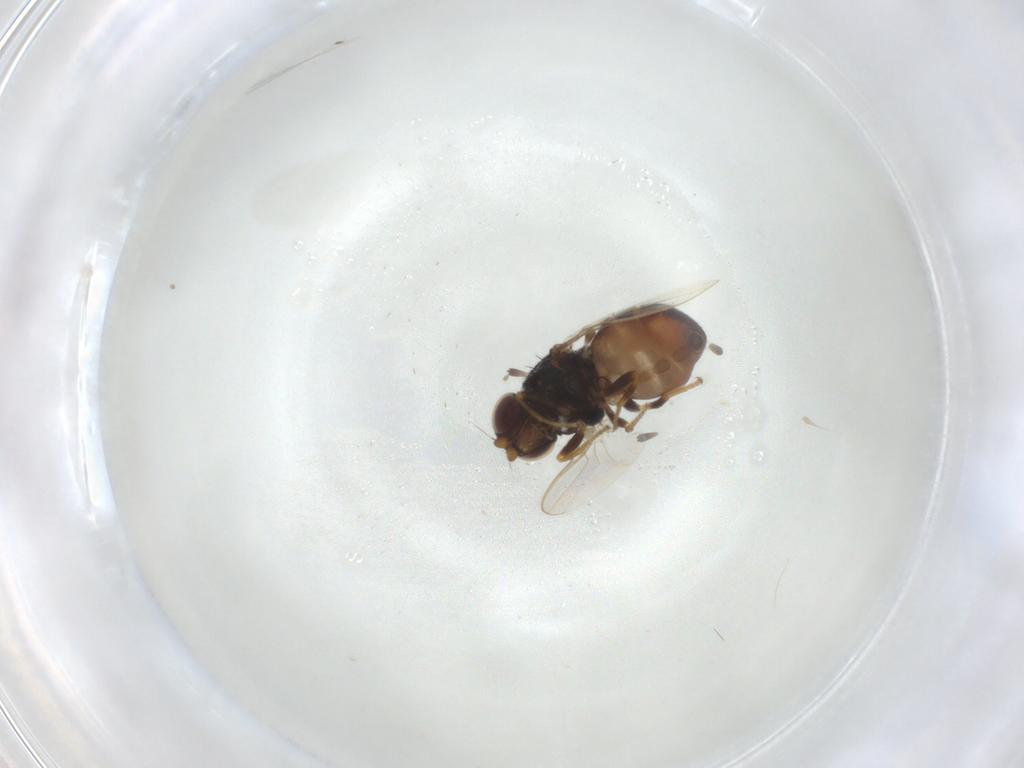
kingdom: Animalia
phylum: Arthropoda
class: Insecta
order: Diptera
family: Chloropidae
